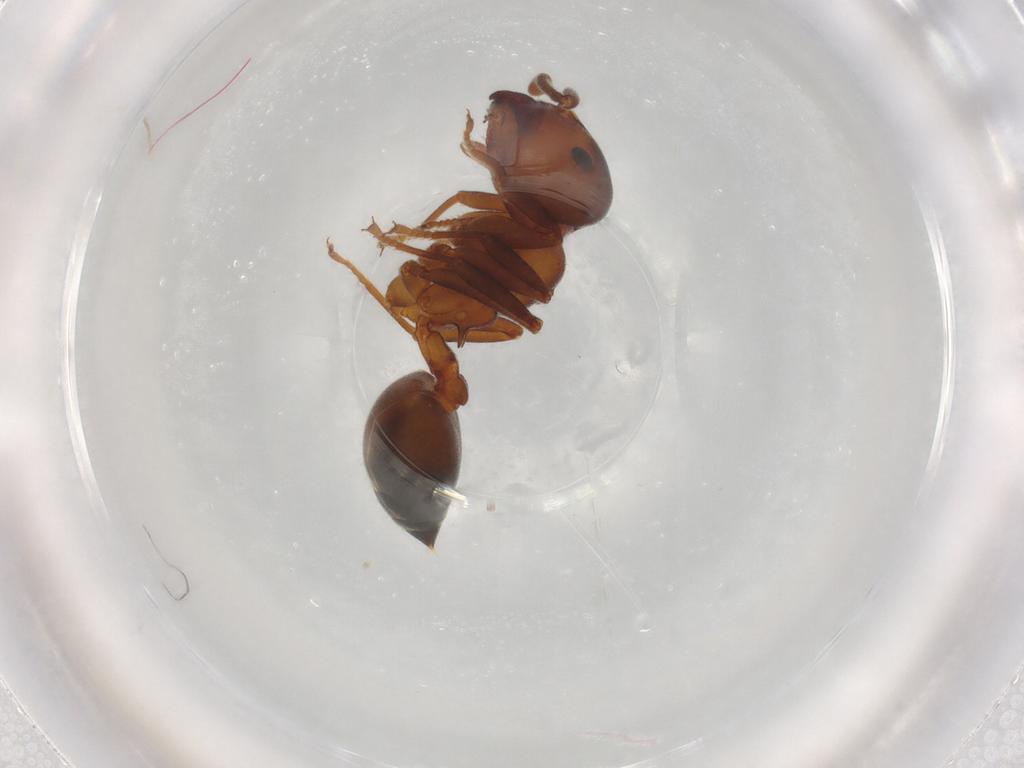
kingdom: Animalia
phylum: Arthropoda
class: Insecta
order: Hymenoptera
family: Formicidae
